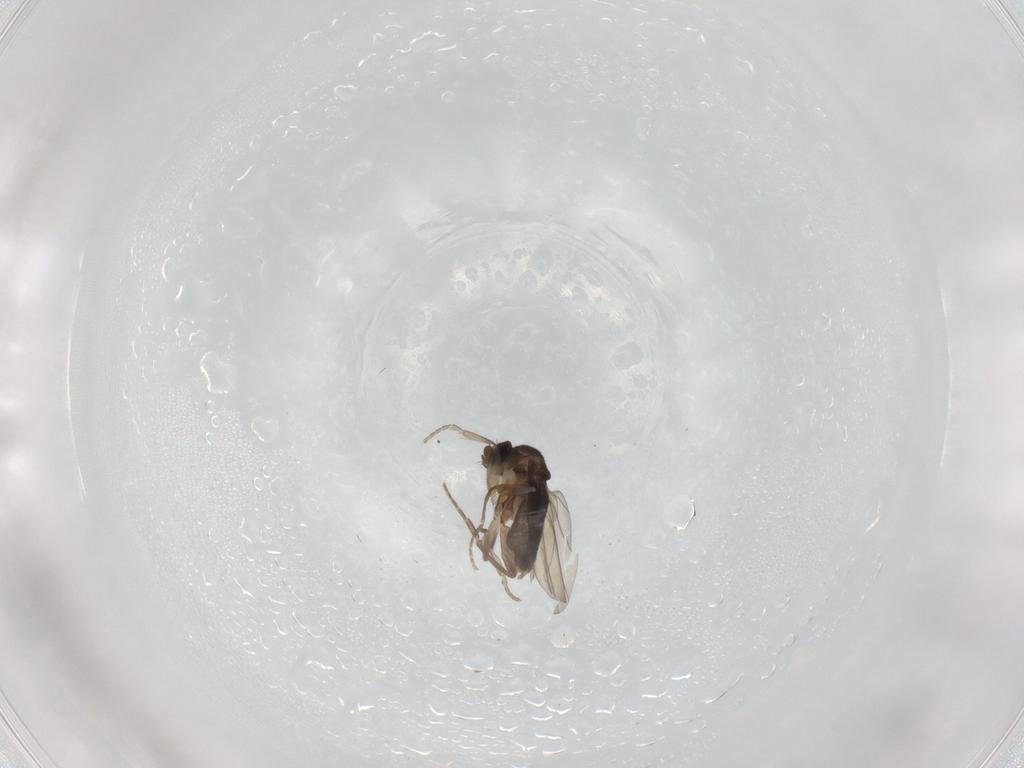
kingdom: Animalia
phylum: Arthropoda
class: Insecta
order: Diptera
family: Phoridae
